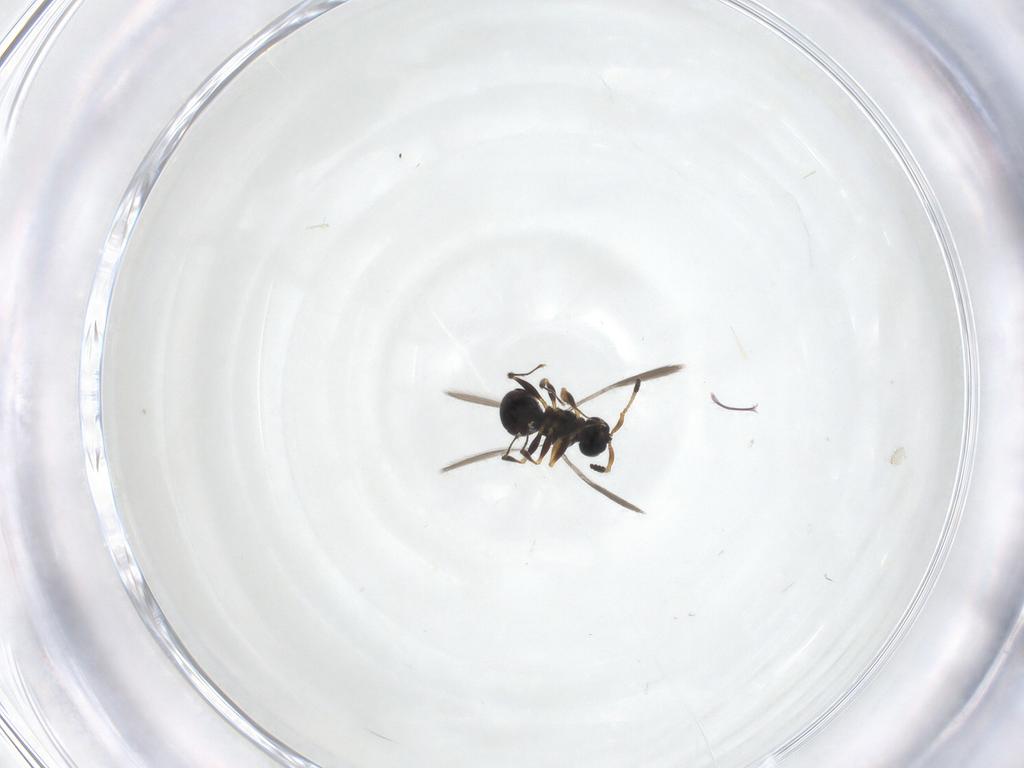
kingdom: Animalia
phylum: Arthropoda
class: Insecta
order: Hymenoptera
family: Scelionidae
